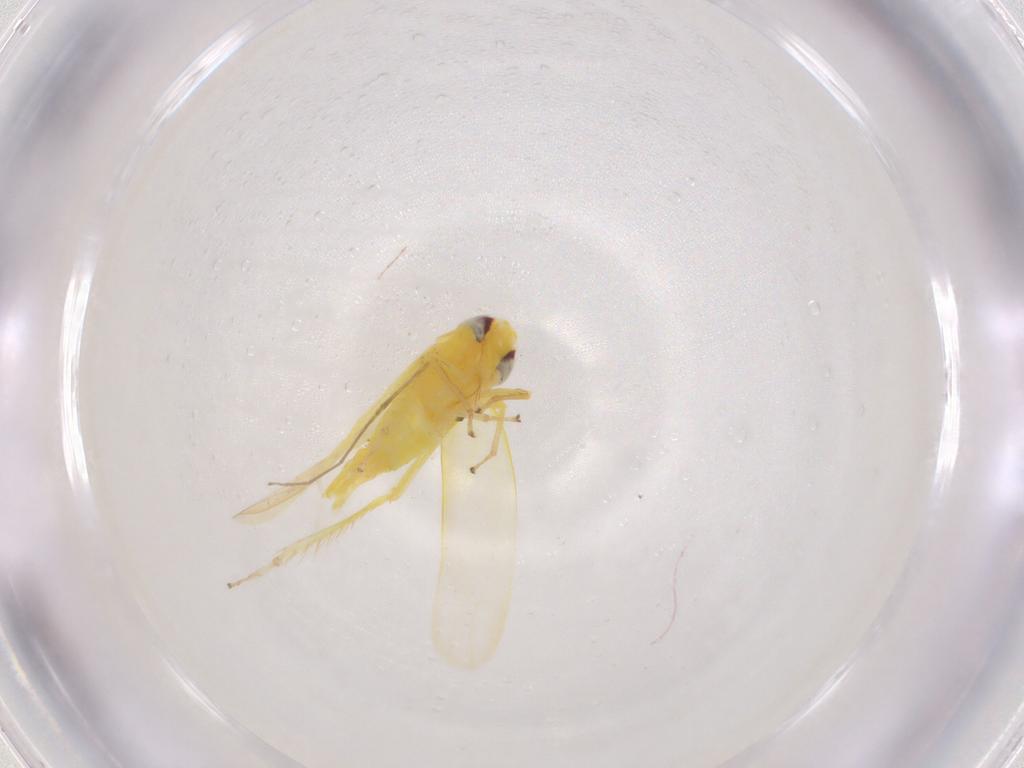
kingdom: Animalia
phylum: Arthropoda
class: Insecta
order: Hemiptera
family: Cicadellidae
